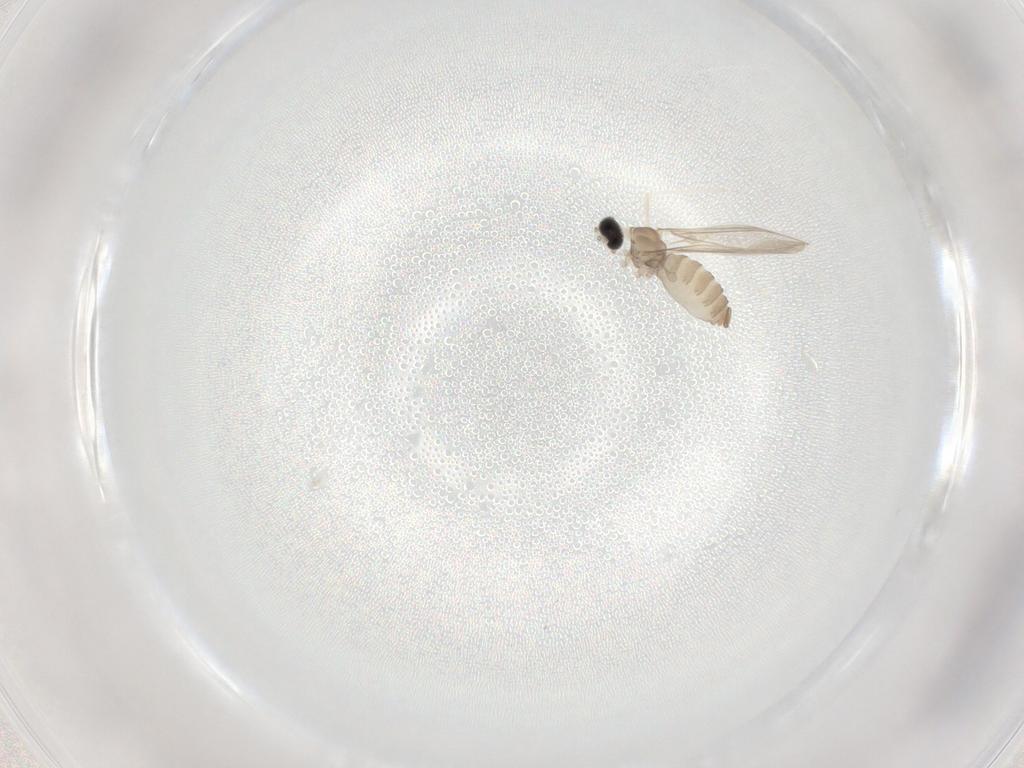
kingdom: Animalia
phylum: Arthropoda
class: Insecta
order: Diptera
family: Cecidomyiidae
